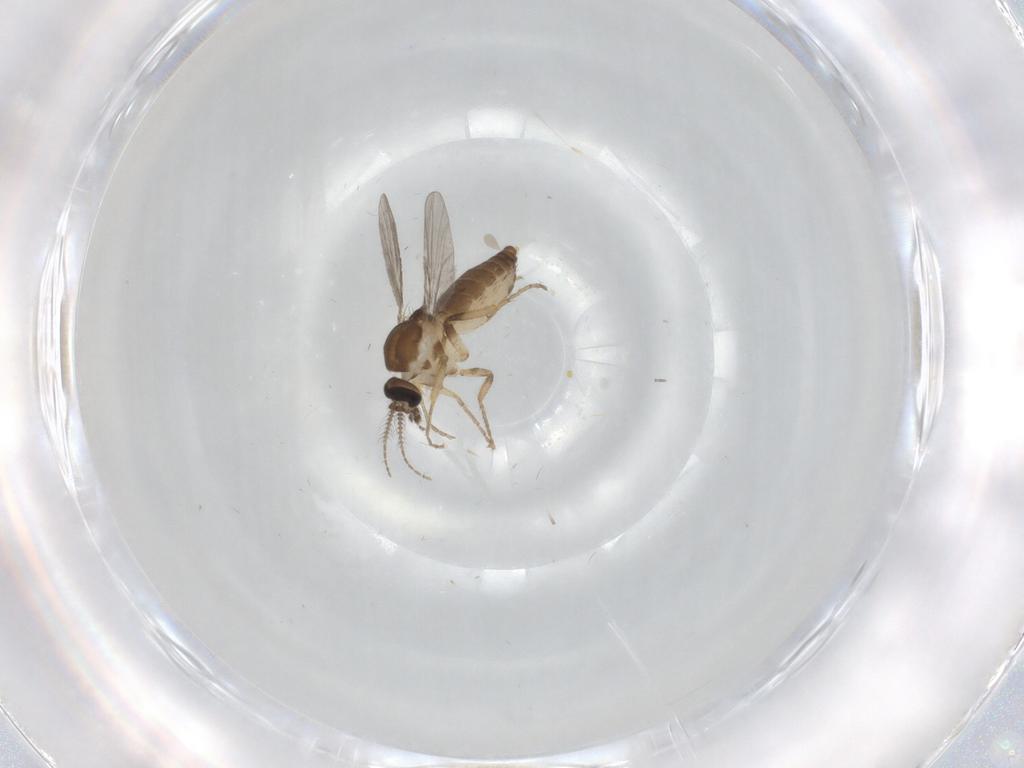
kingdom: Animalia
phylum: Arthropoda
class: Insecta
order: Diptera
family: Ceratopogonidae
